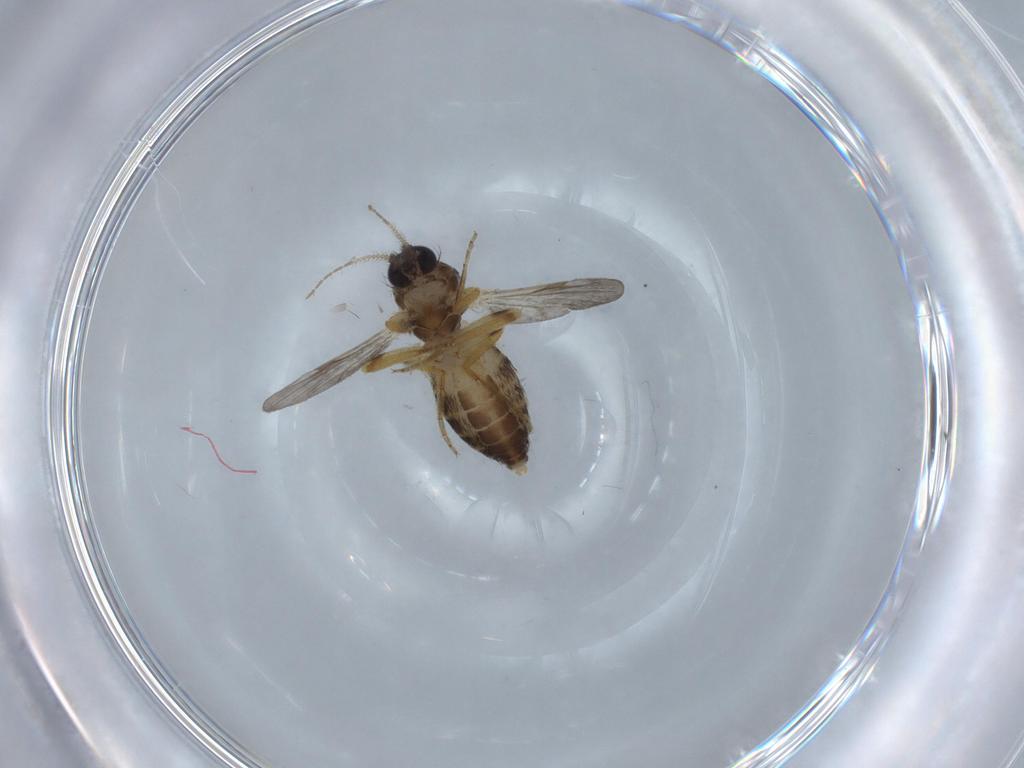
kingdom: Animalia
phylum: Arthropoda
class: Insecta
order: Diptera
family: Ceratopogonidae
